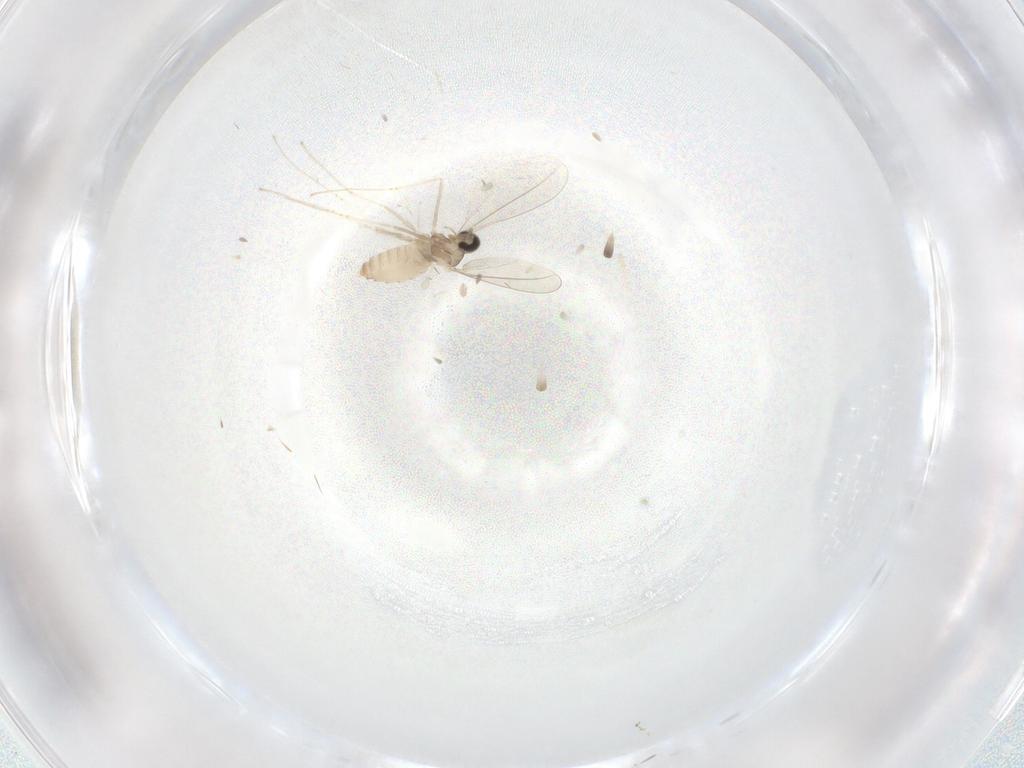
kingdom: Animalia
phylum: Arthropoda
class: Insecta
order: Diptera
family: Cecidomyiidae
